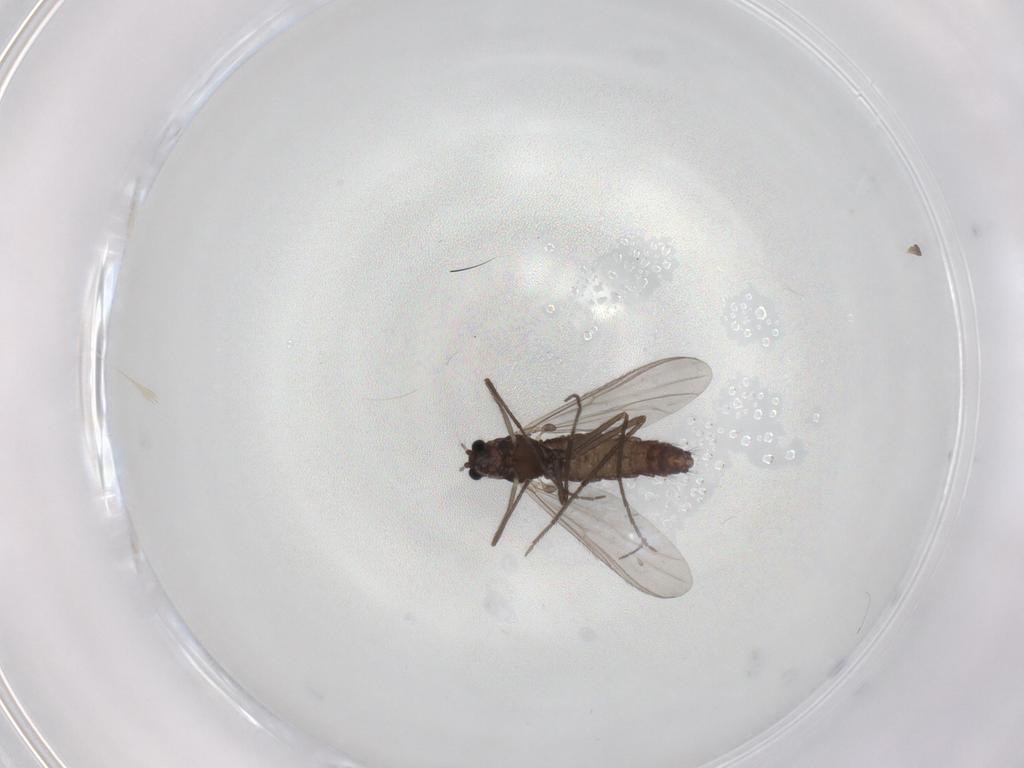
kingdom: Animalia
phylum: Arthropoda
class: Insecta
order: Diptera
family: Chironomidae
